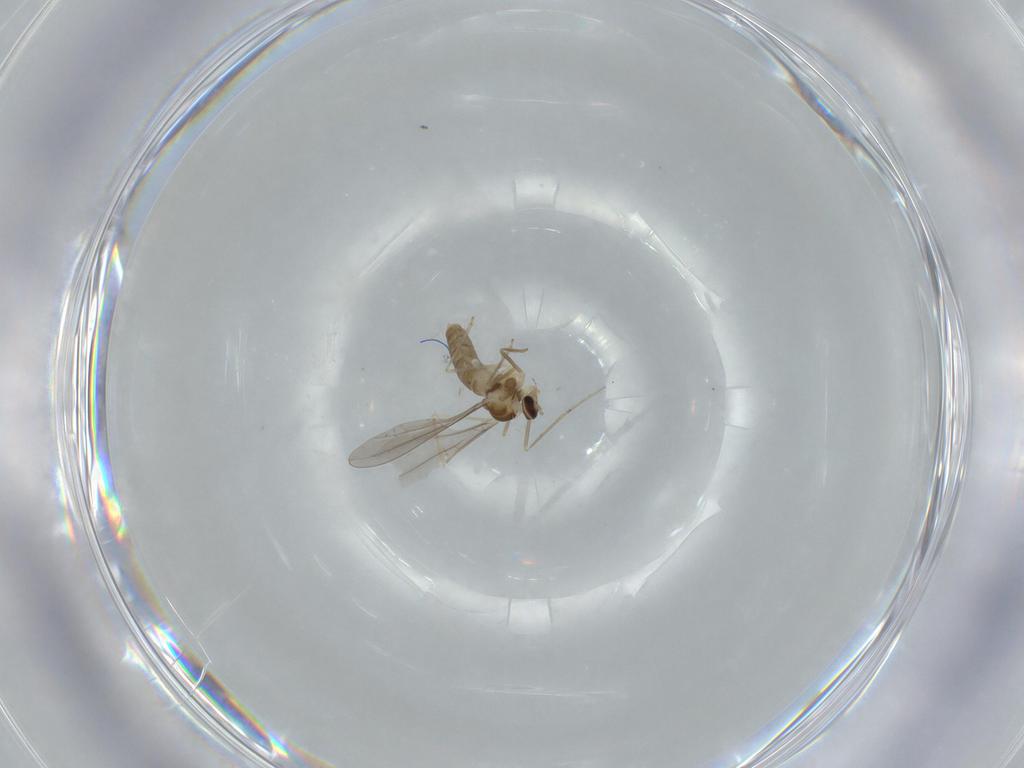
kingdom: Animalia
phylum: Arthropoda
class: Insecta
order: Diptera
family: Cecidomyiidae
